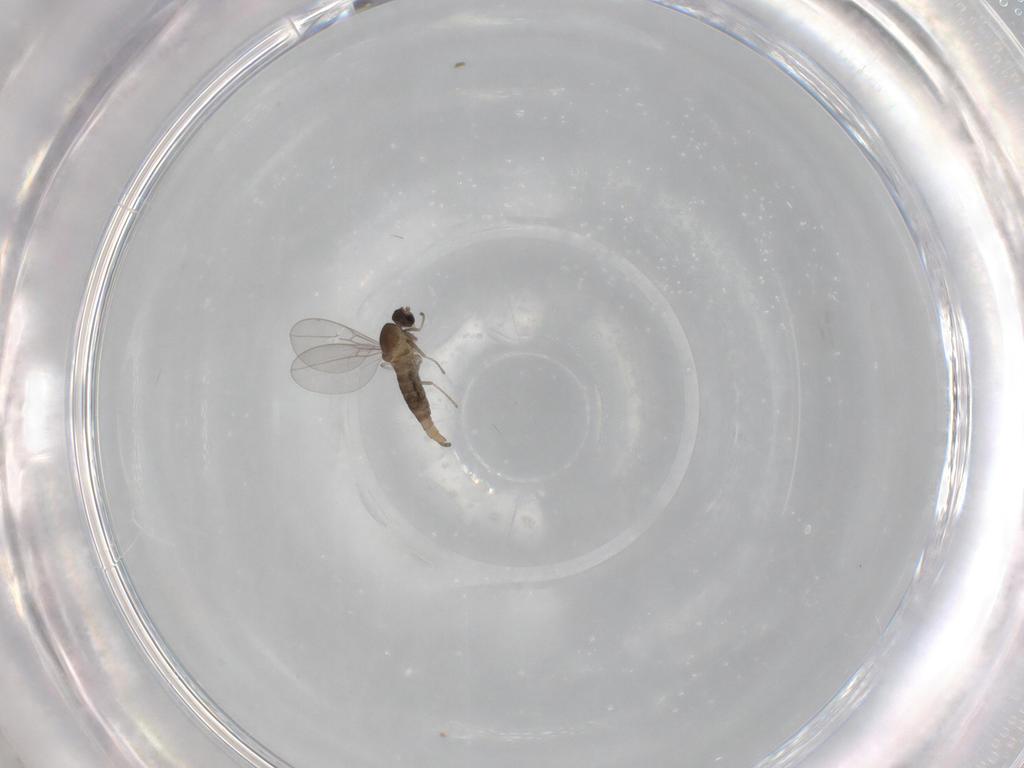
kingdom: Animalia
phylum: Arthropoda
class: Insecta
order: Diptera
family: Cecidomyiidae
